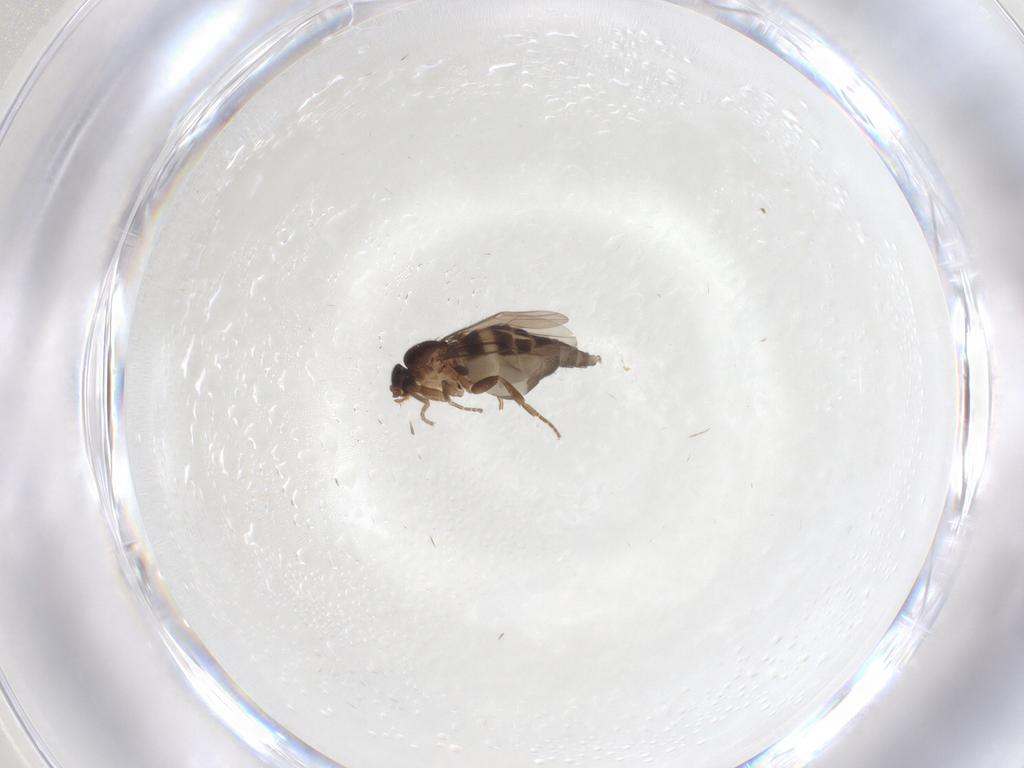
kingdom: Animalia
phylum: Arthropoda
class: Insecta
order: Diptera
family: Phoridae
